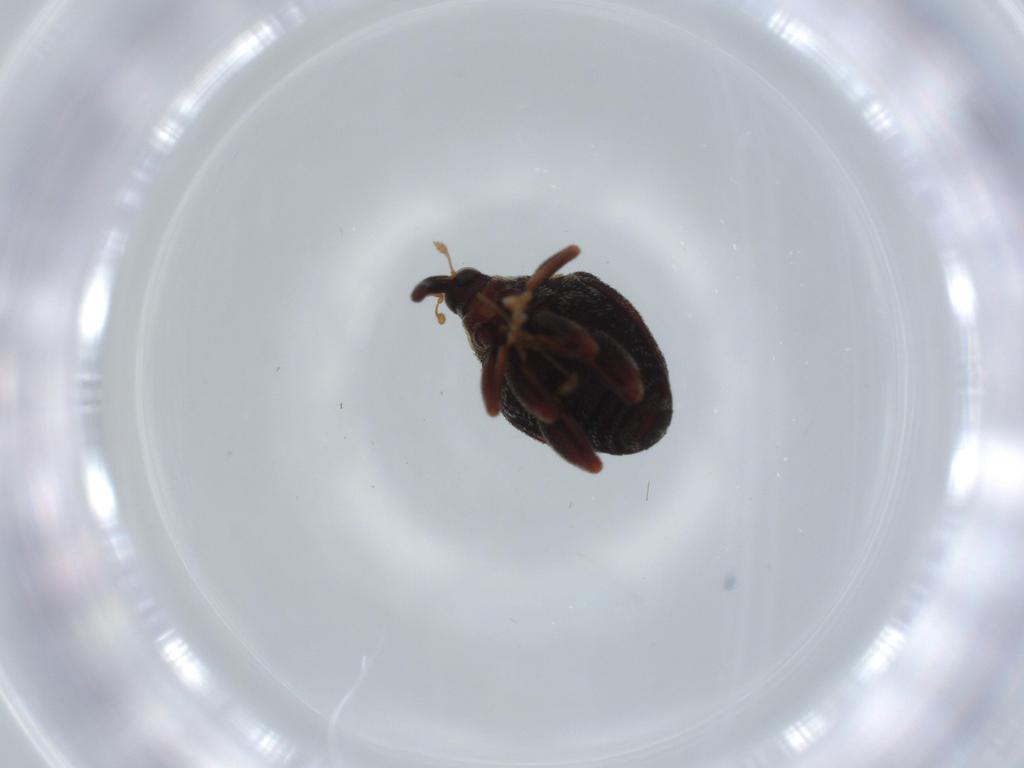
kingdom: Animalia
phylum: Arthropoda
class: Insecta
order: Coleoptera
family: Curculionidae
